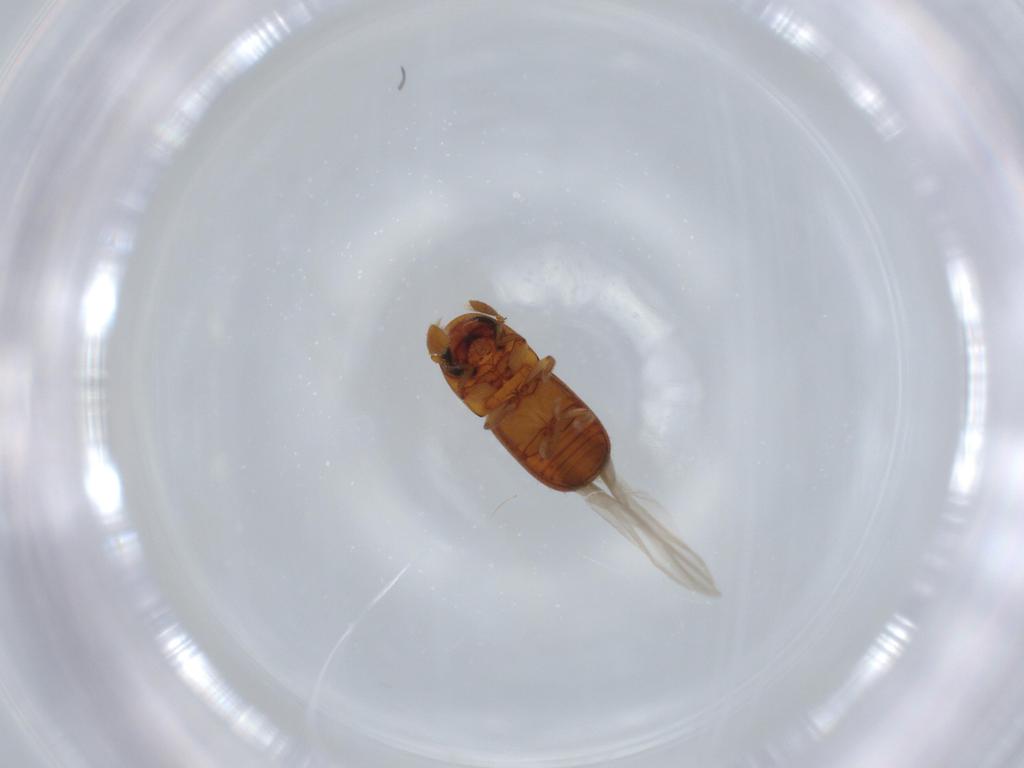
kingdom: Animalia
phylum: Arthropoda
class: Insecta
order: Coleoptera
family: Curculionidae
